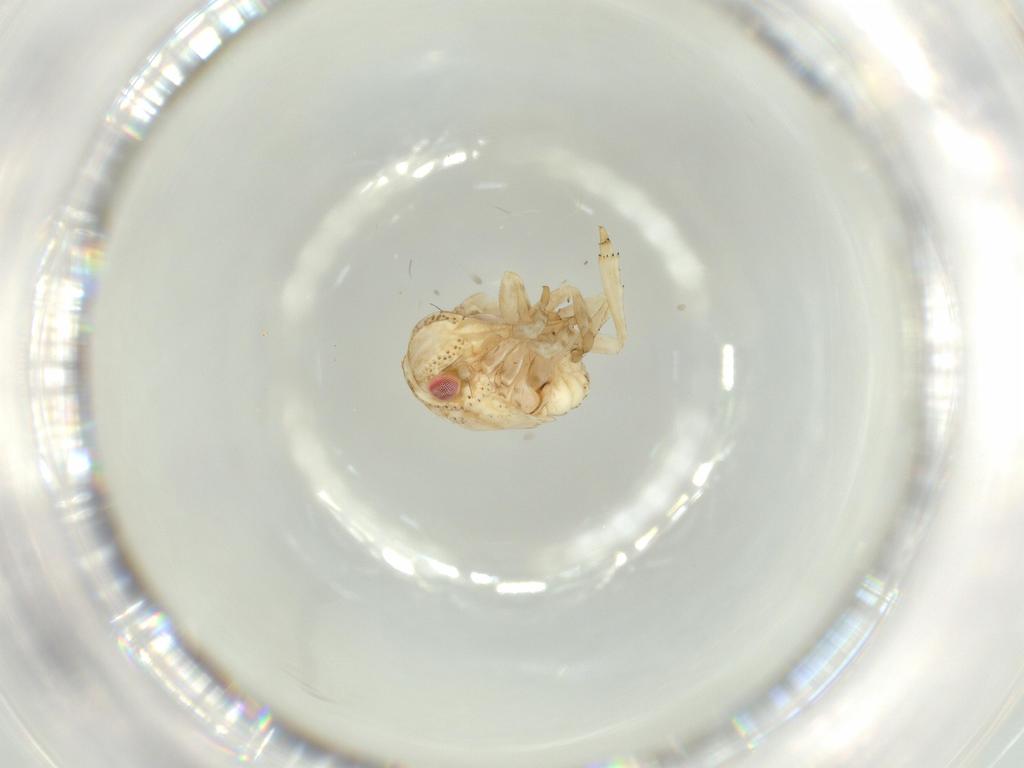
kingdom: Animalia
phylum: Arthropoda
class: Insecta
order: Hemiptera
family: Acanaloniidae
